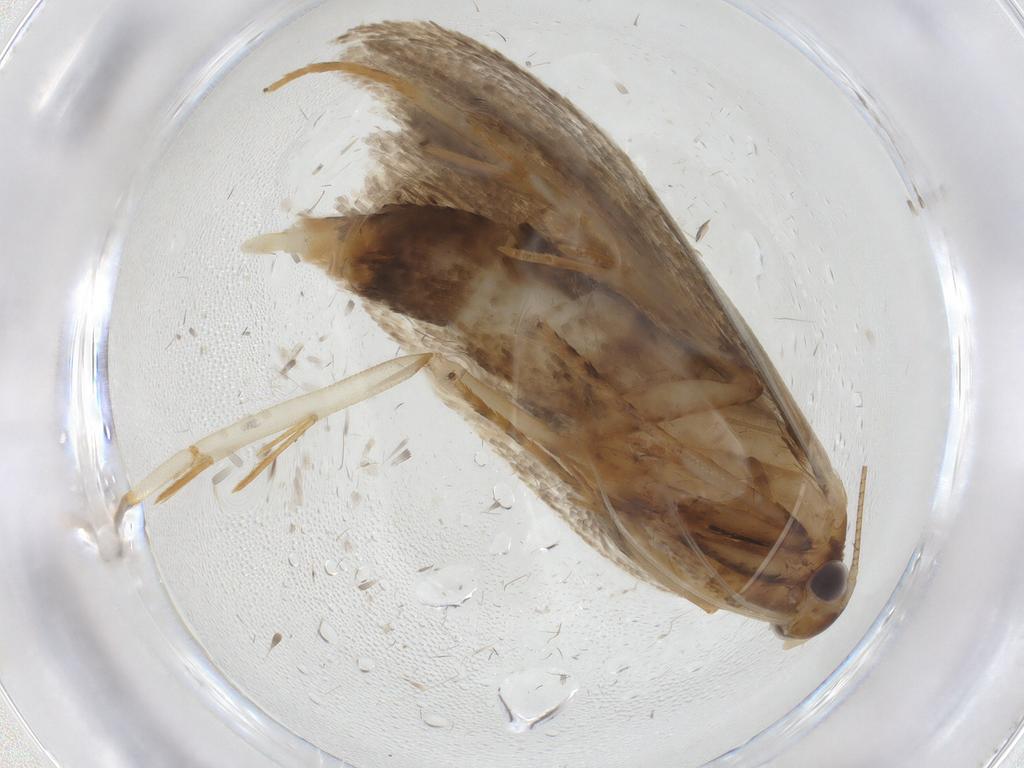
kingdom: Animalia
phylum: Arthropoda
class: Insecta
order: Lepidoptera
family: Oecophoridae
